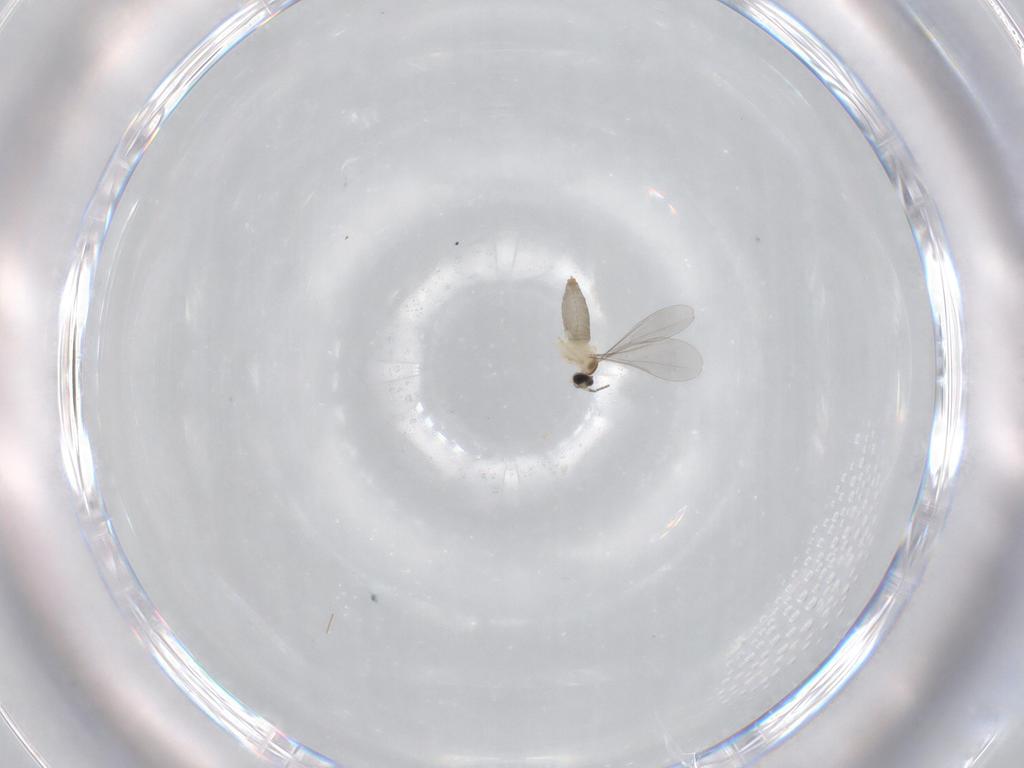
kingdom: Animalia
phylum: Arthropoda
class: Insecta
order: Diptera
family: Cecidomyiidae
